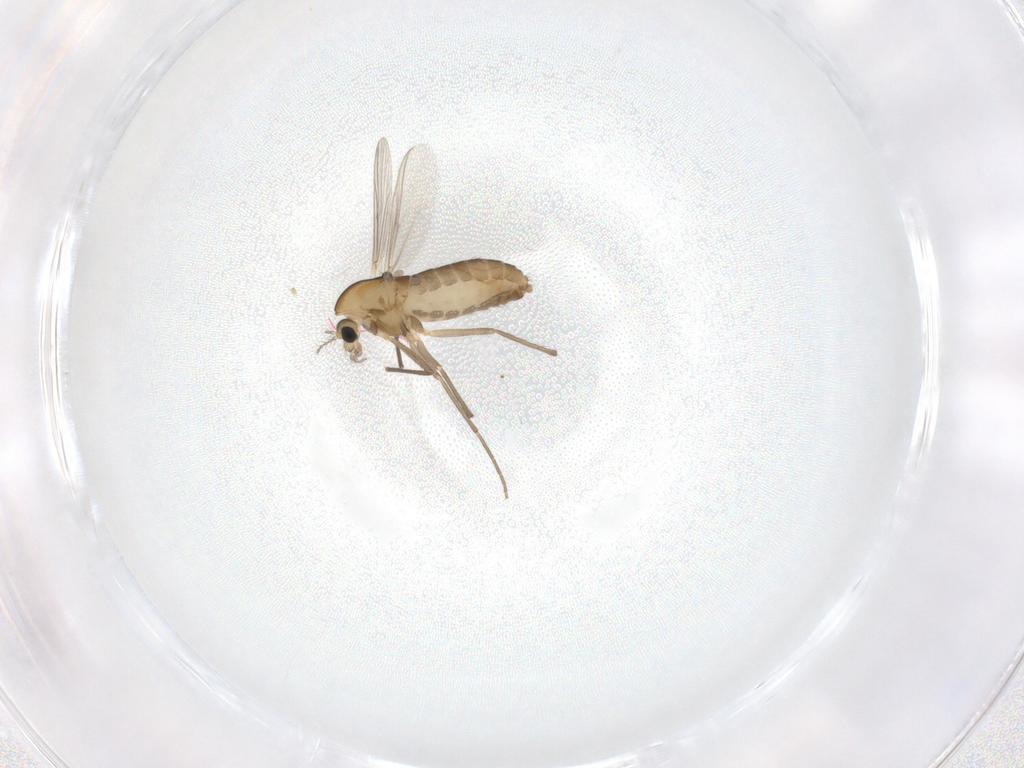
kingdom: Animalia
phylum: Arthropoda
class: Insecta
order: Diptera
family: Chironomidae
